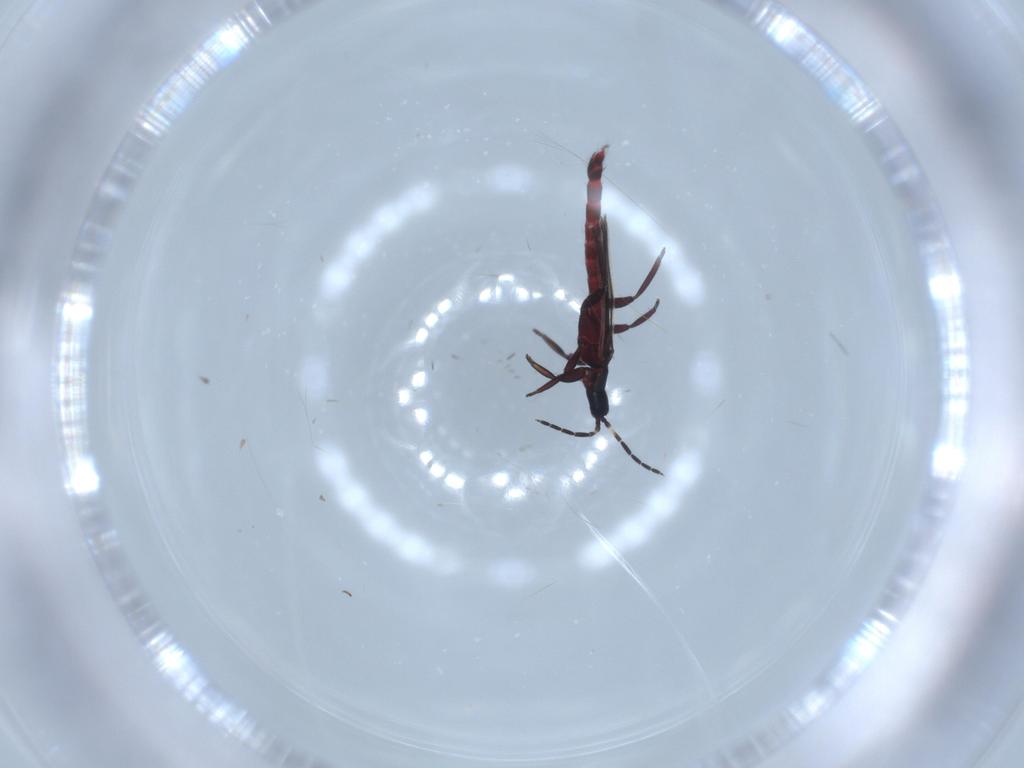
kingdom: Animalia
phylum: Arthropoda
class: Insecta
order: Thysanoptera
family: Aeolothripidae
